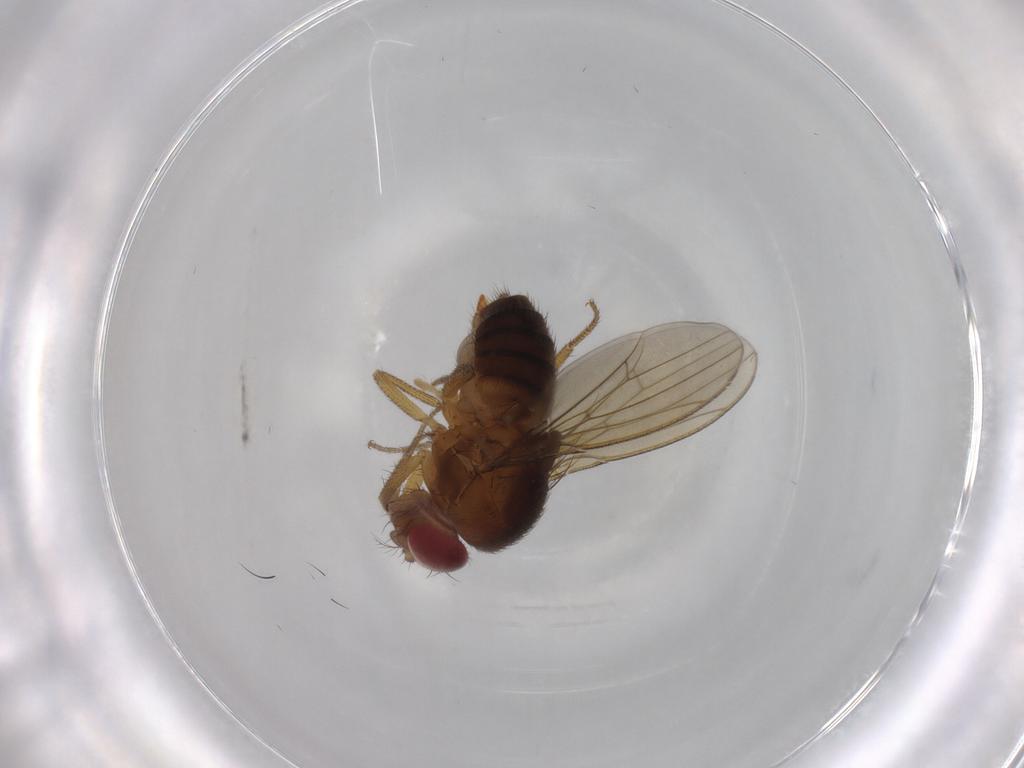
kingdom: Animalia
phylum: Arthropoda
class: Insecta
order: Diptera
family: Drosophilidae
